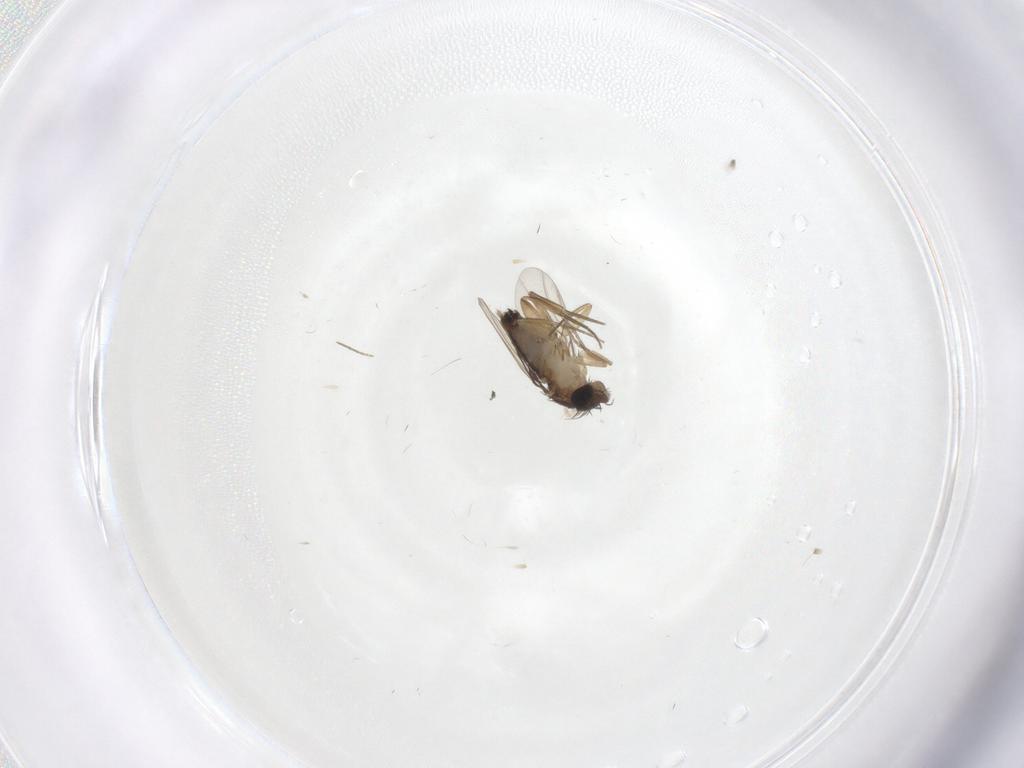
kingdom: Animalia
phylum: Arthropoda
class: Insecta
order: Diptera
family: Phoridae
